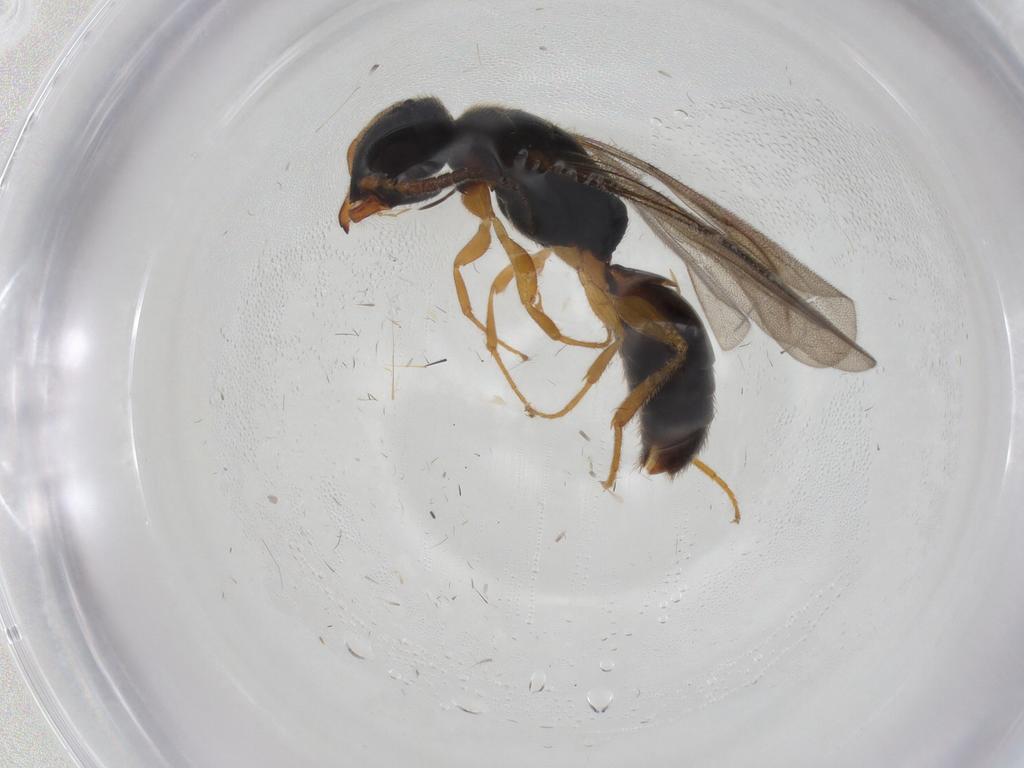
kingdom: Animalia
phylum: Arthropoda
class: Insecta
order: Hymenoptera
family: Bethylidae
